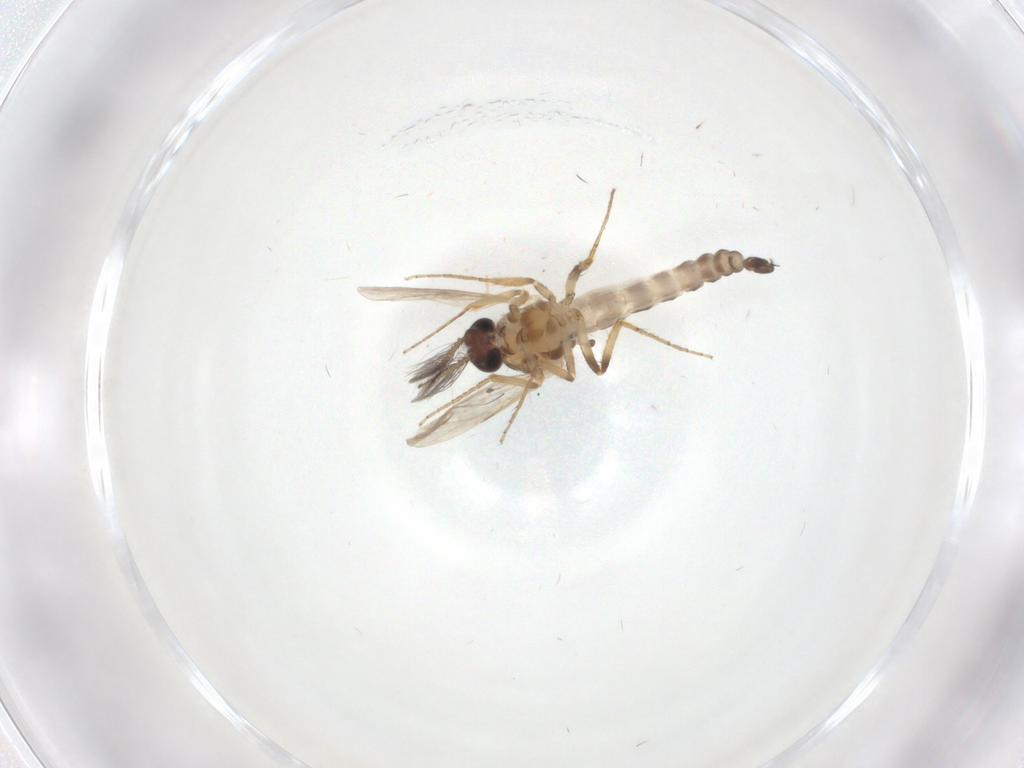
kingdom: Animalia
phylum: Arthropoda
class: Insecta
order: Diptera
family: Ceratopogonidae
